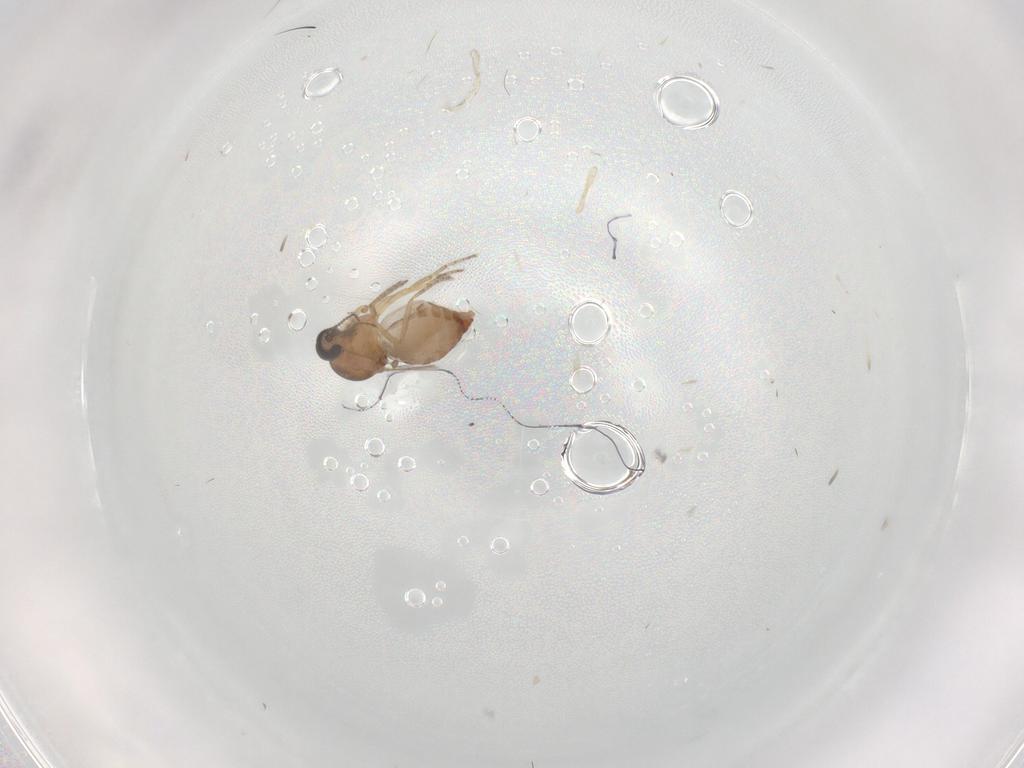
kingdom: Animalia
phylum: Arthropoda
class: Insecta
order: Diptera
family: Ceratopogonidae
